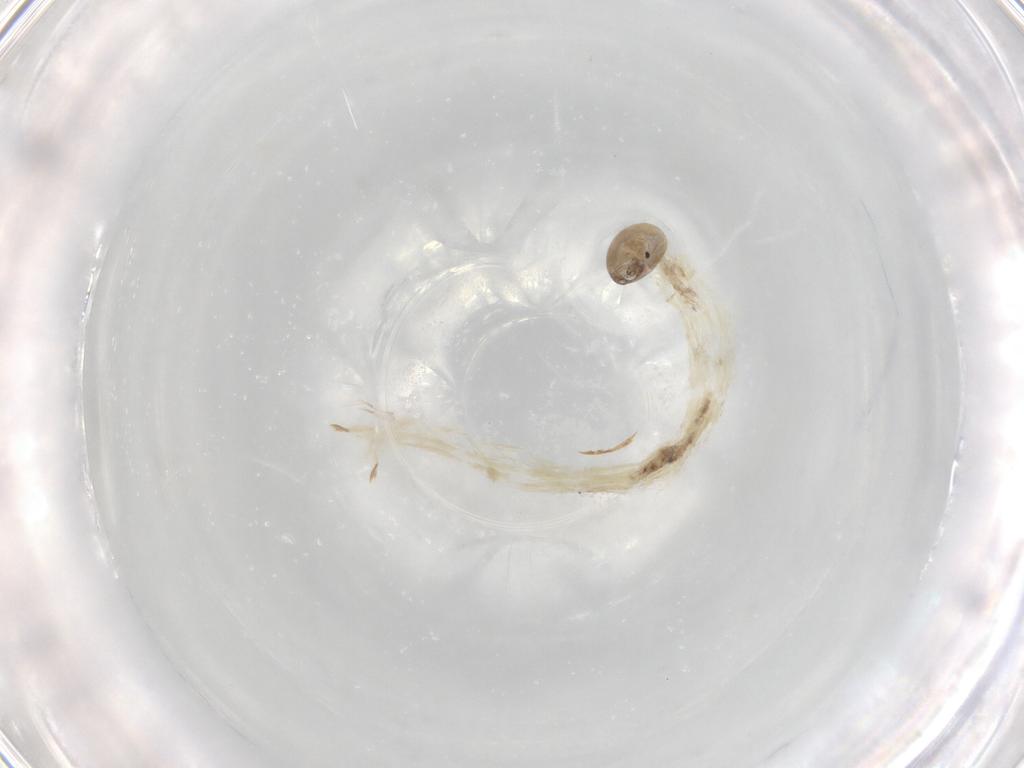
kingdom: Animalia
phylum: Arthropoda
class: Insecta
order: Diptera
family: Chironomidae
